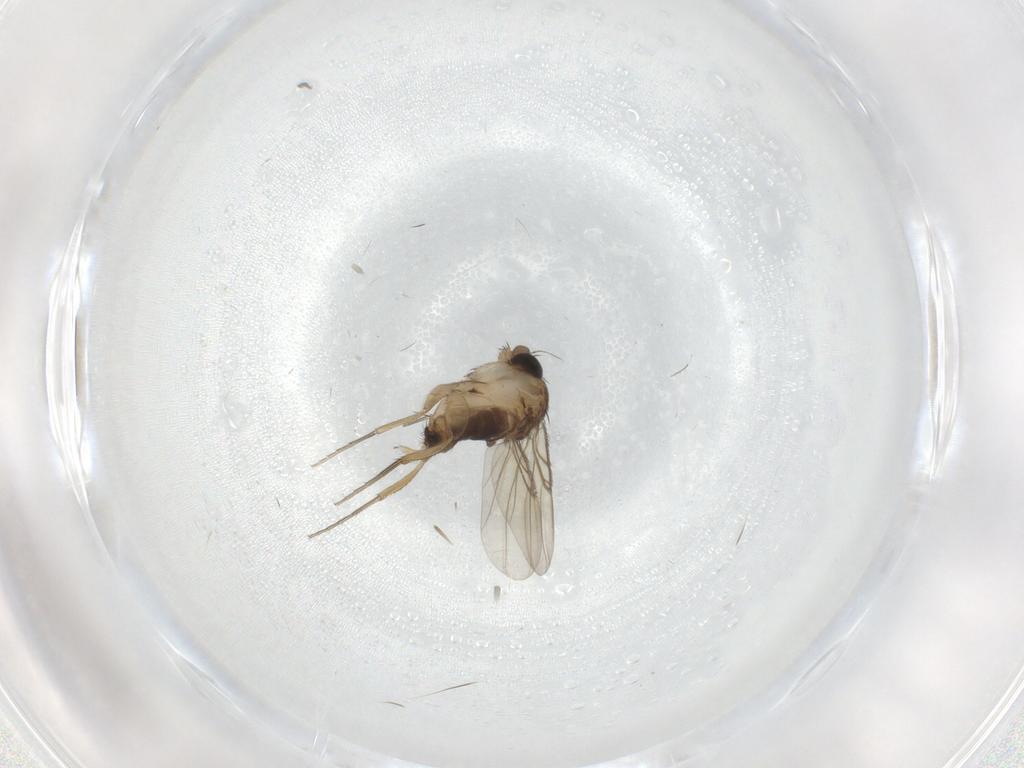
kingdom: Animalia
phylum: Arthropoda
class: Insecta
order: Diptera
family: Phoridae
